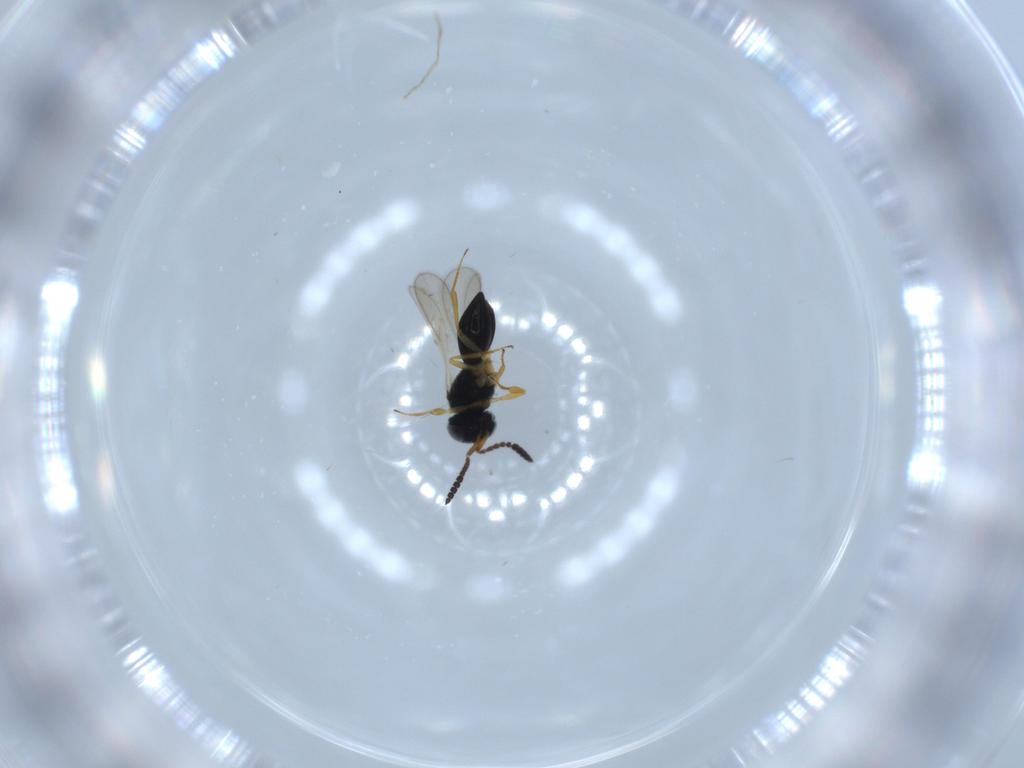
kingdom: Animalia
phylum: Arthropoda
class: Insecta
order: Hymenoptera
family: Scelionidae
